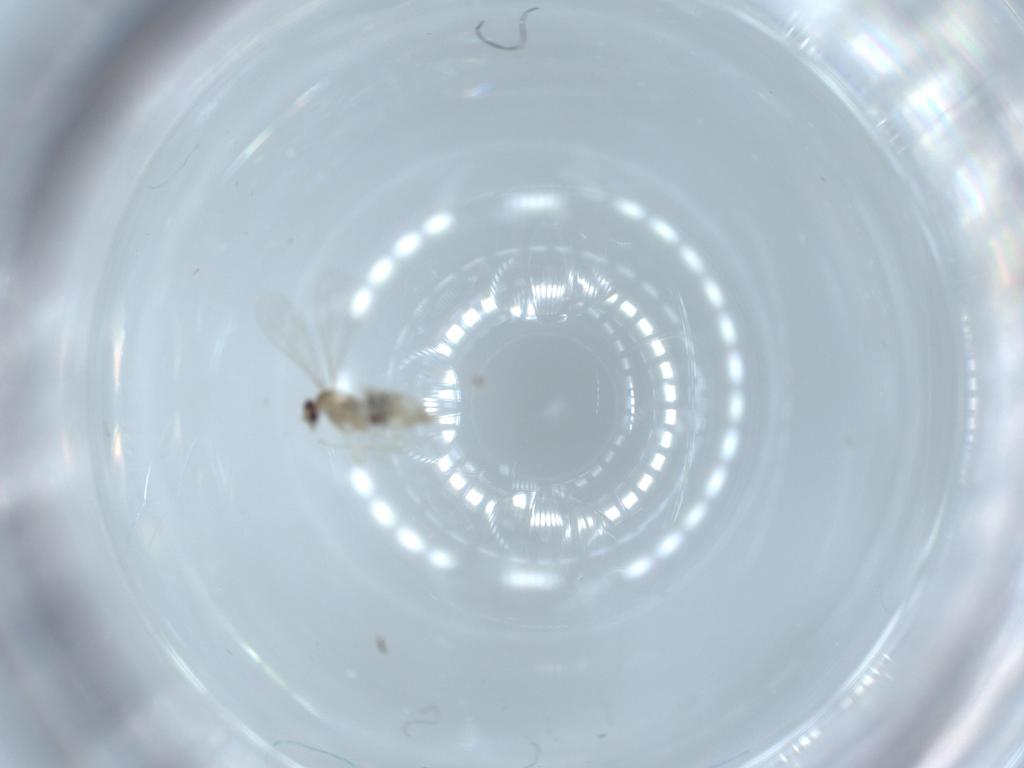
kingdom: Animalia
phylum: Arthropoda
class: Insecta
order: Diptera
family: Cecidomyiidae
